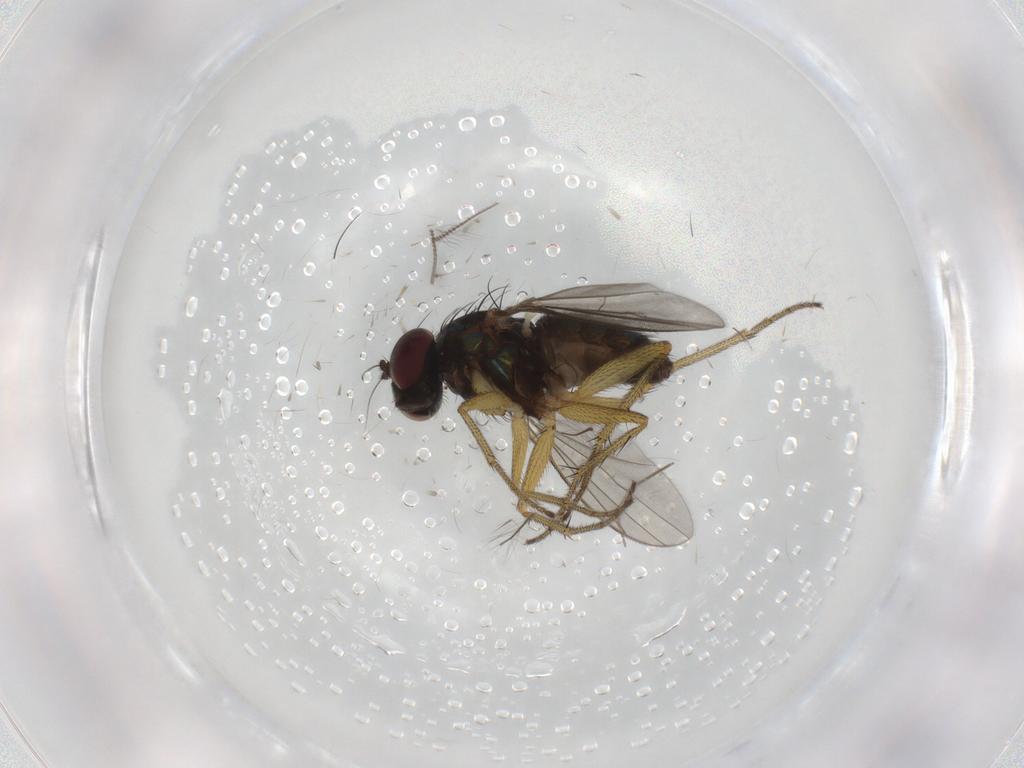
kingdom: Animalia
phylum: Arthropoda
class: Insecta
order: Diptera
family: Chironomidae
